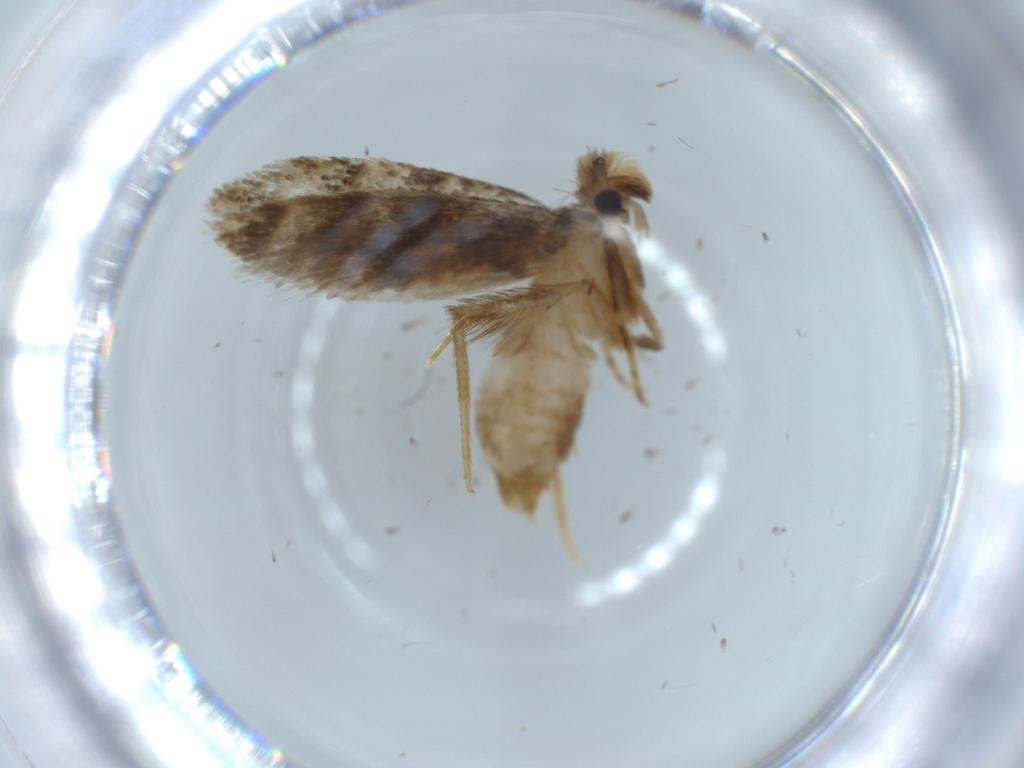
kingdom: Animalia
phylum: Arthropoda
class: Insecta
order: Lepidoptera
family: Tineidae
